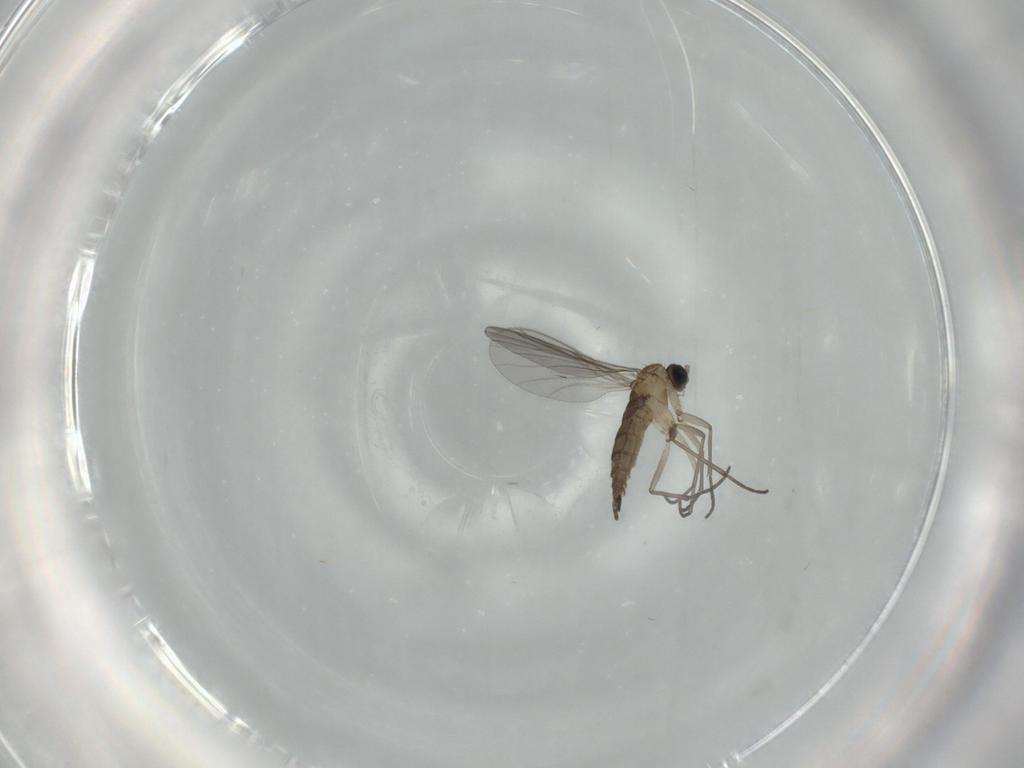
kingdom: Animalia
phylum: Arthropoda
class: Insecta
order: Diptera
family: Sciaridae
